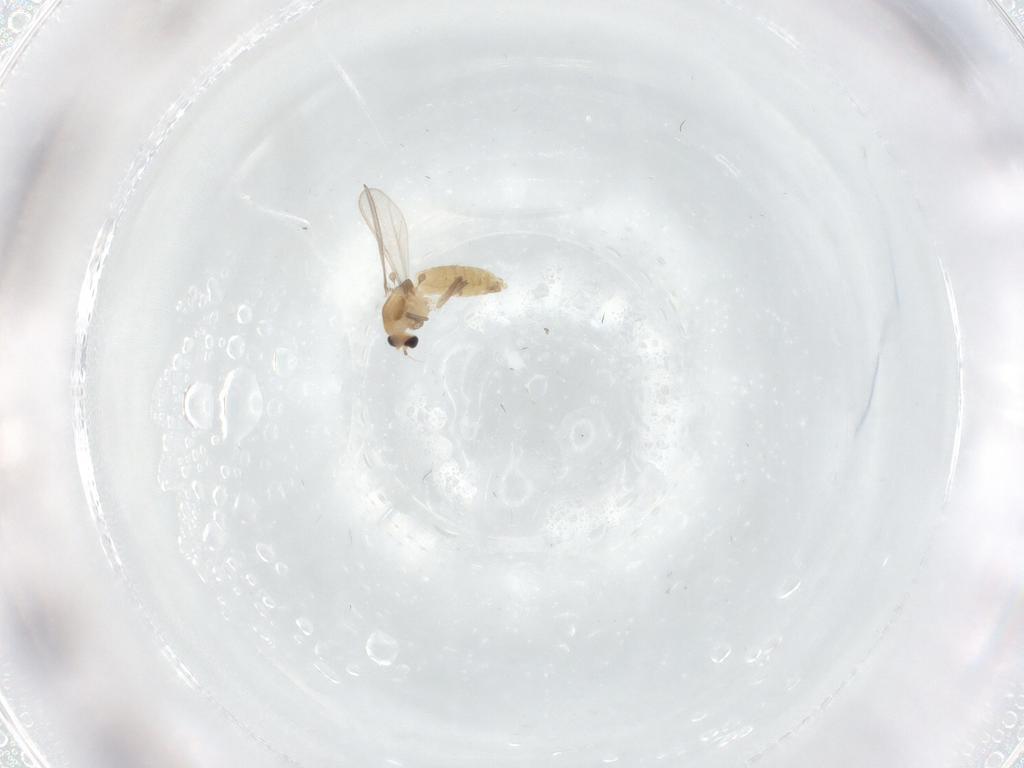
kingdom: Animalia
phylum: Arthropoda
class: Insecta
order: Diptera
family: Chironomidae
